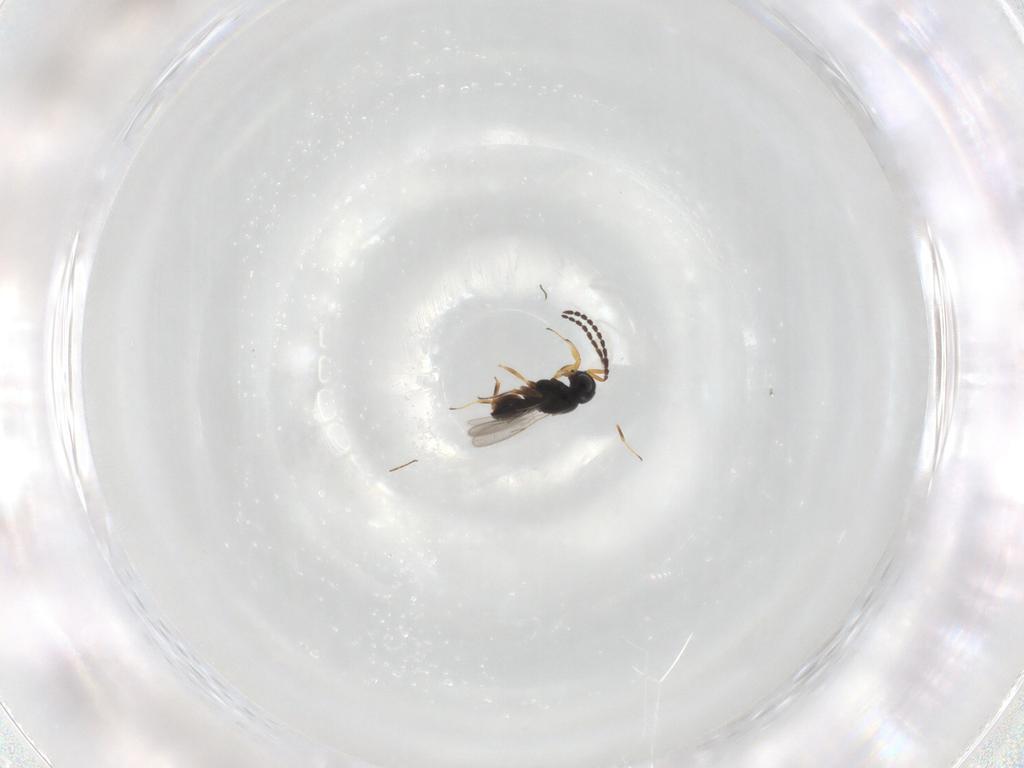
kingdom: Animalia
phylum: Arthropoda
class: Insecta
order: Hymenoptera
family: Scelionidae
